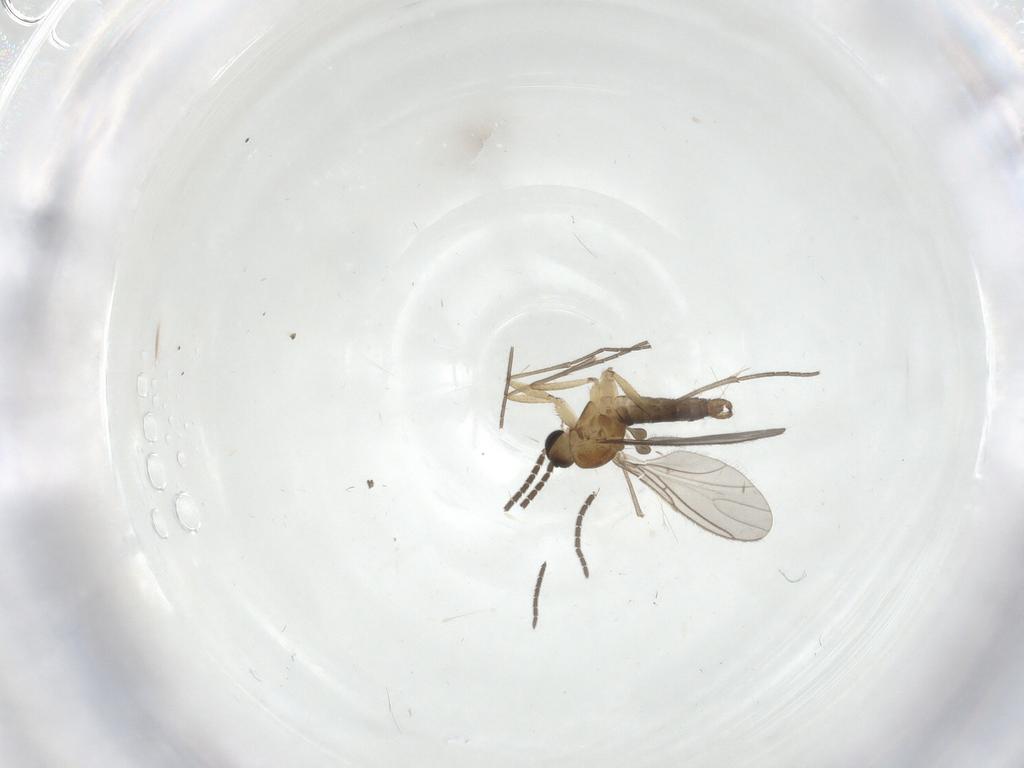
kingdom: Animalia
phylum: Arthropoda
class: Insecta
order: Diptera
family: Sciaridae
